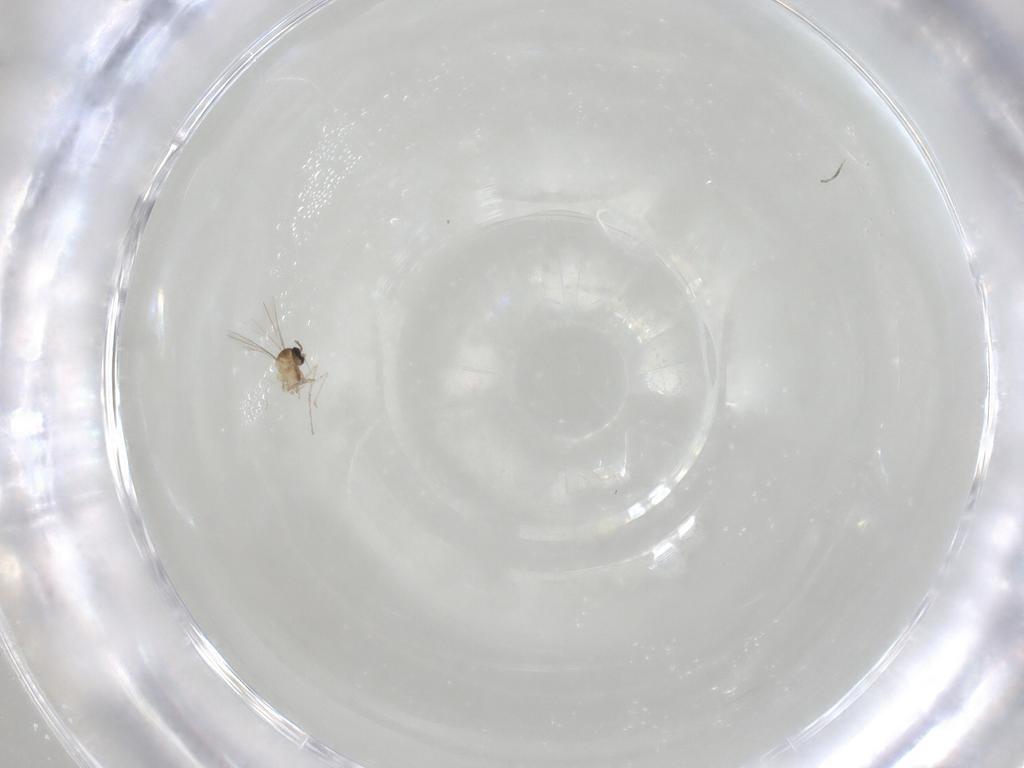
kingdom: Animalia
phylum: Arthropoda
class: Insecta
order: Diptera
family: Cecidomyiidae
